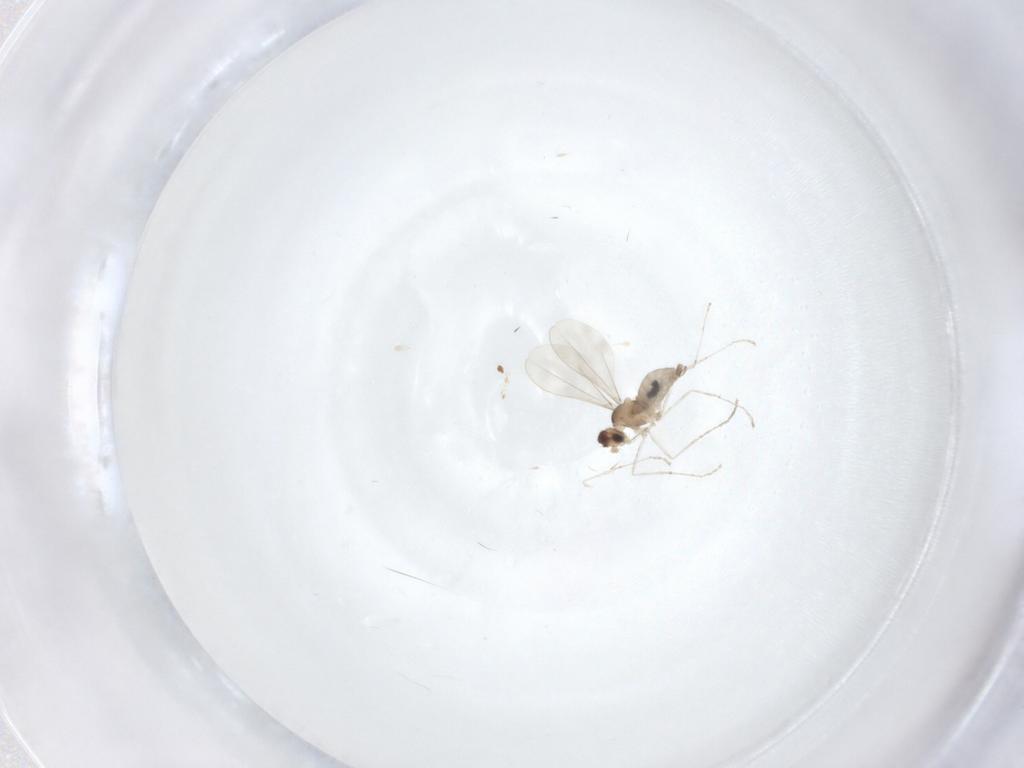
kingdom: Animalia
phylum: Arthropoda
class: Insecta
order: Diptera
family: Cecidomyiidae
